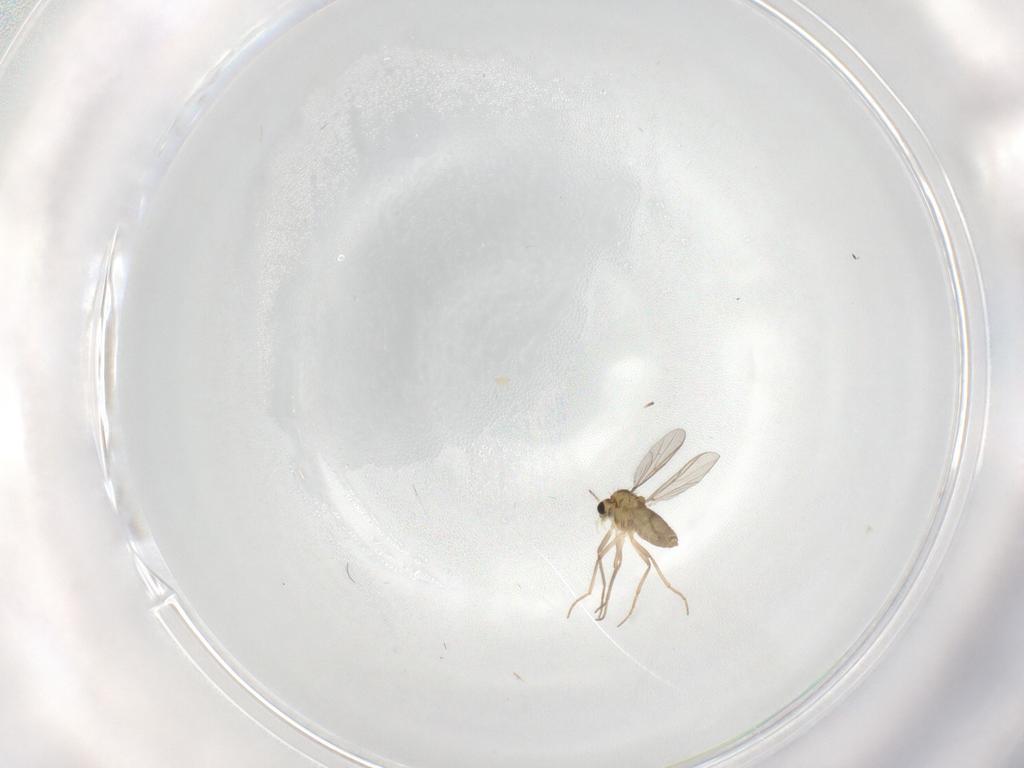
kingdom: Animalia
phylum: Arthropoda
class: Insecta
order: Diptera
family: Chironomidae
